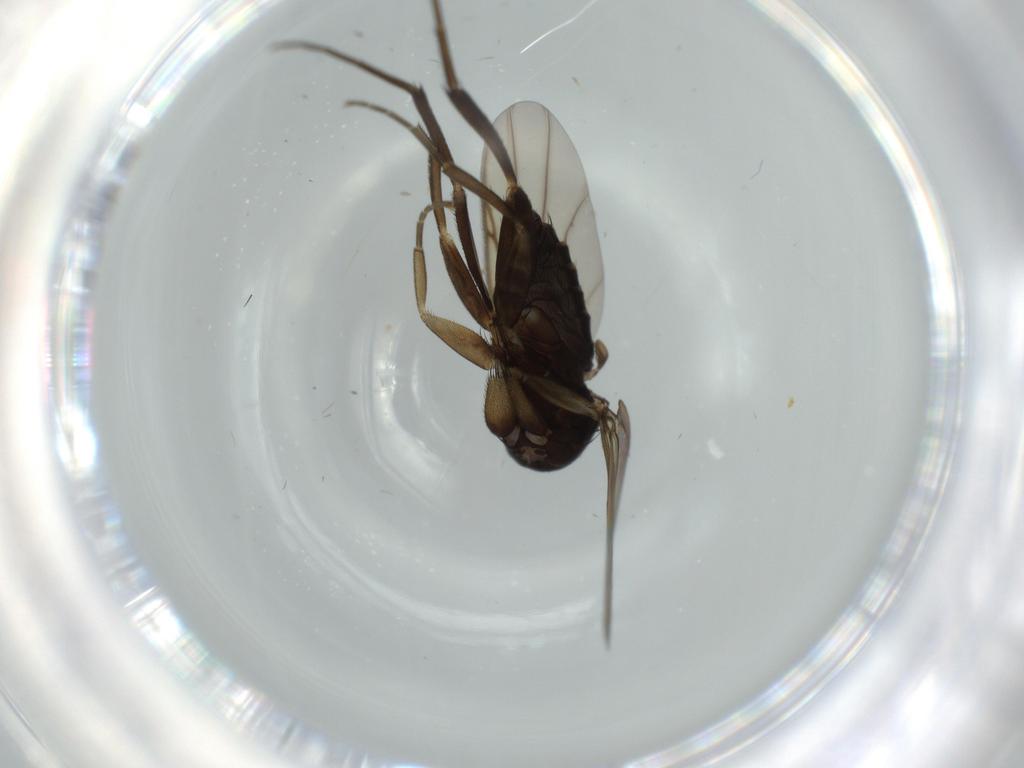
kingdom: Animalia
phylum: Arthropoda
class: Insecta
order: Diptera
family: Phoridae
